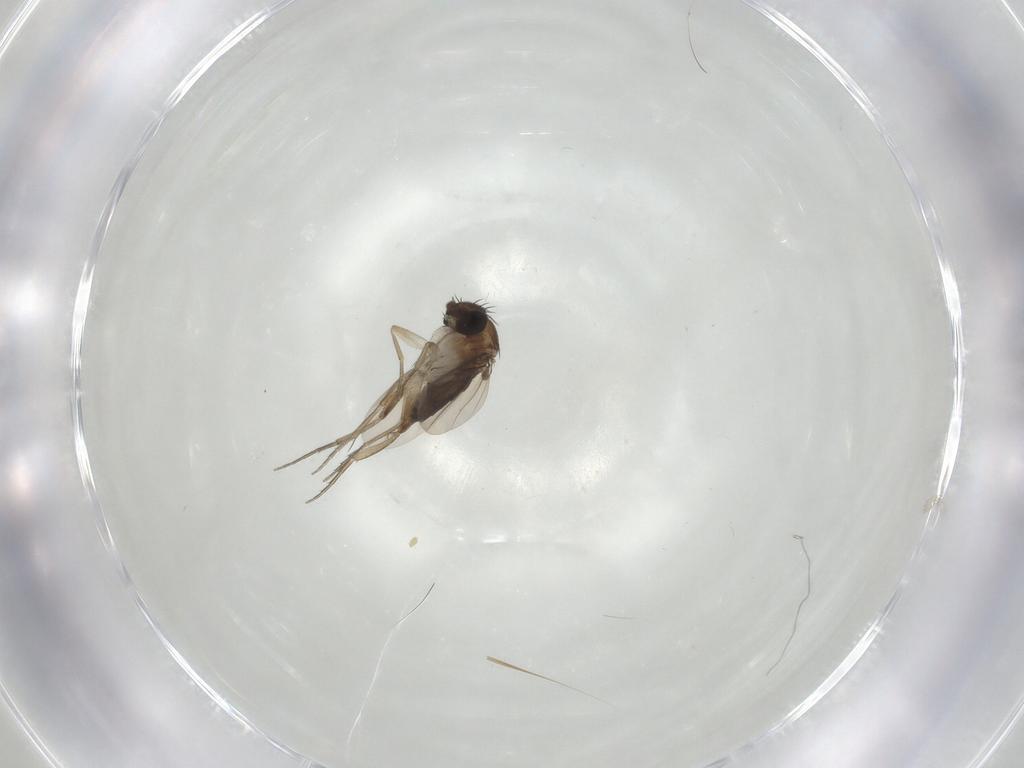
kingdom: Animalia
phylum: Arthropoda
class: Insecta
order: Diptera
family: Phoridae
